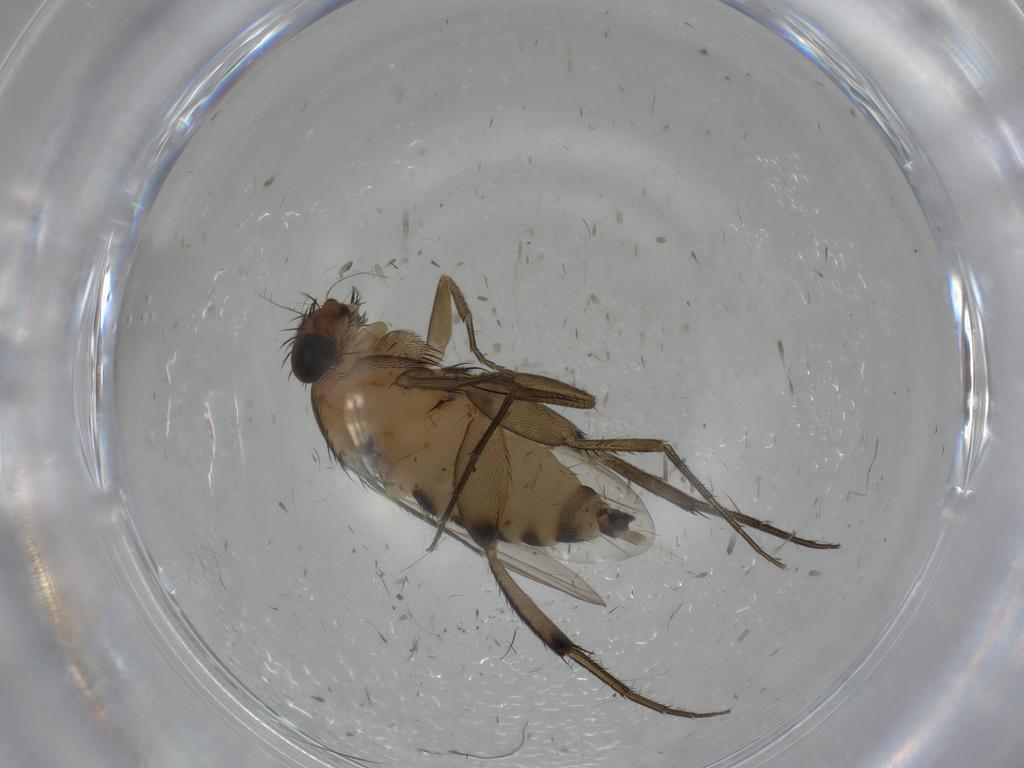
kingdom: Animalia
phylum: Arthropoda
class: Insecta
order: Diptera
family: Phoridae
